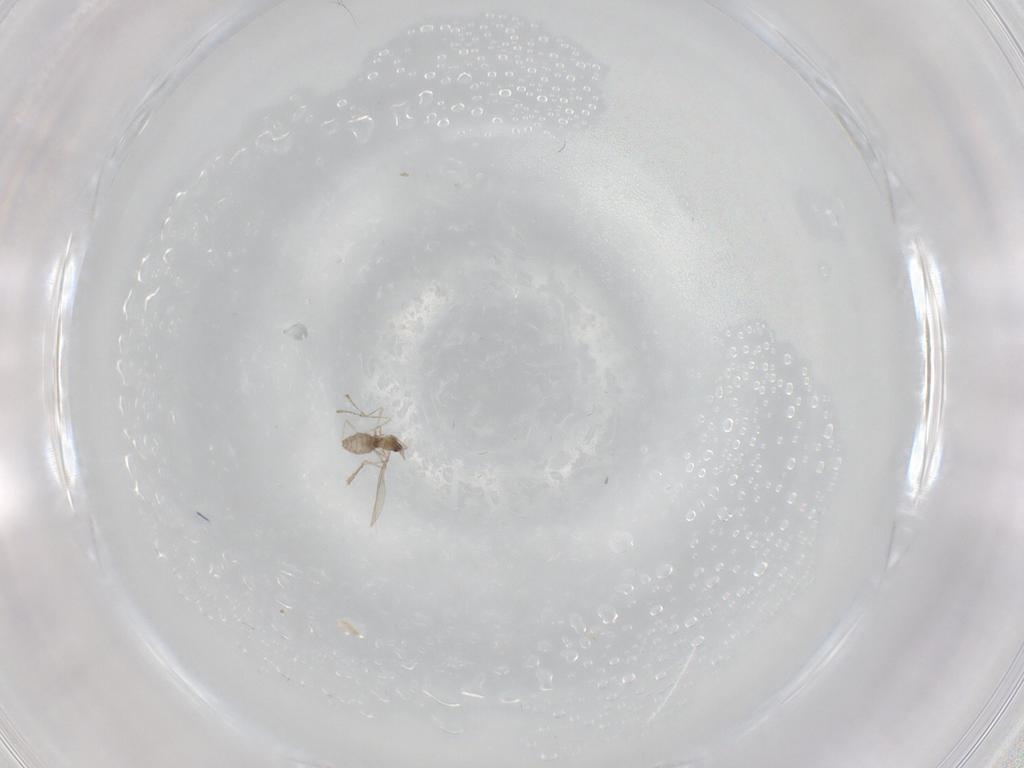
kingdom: Animalia
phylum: Arthropoda
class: Insecta
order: Diptera
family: Cecidomyiidae
